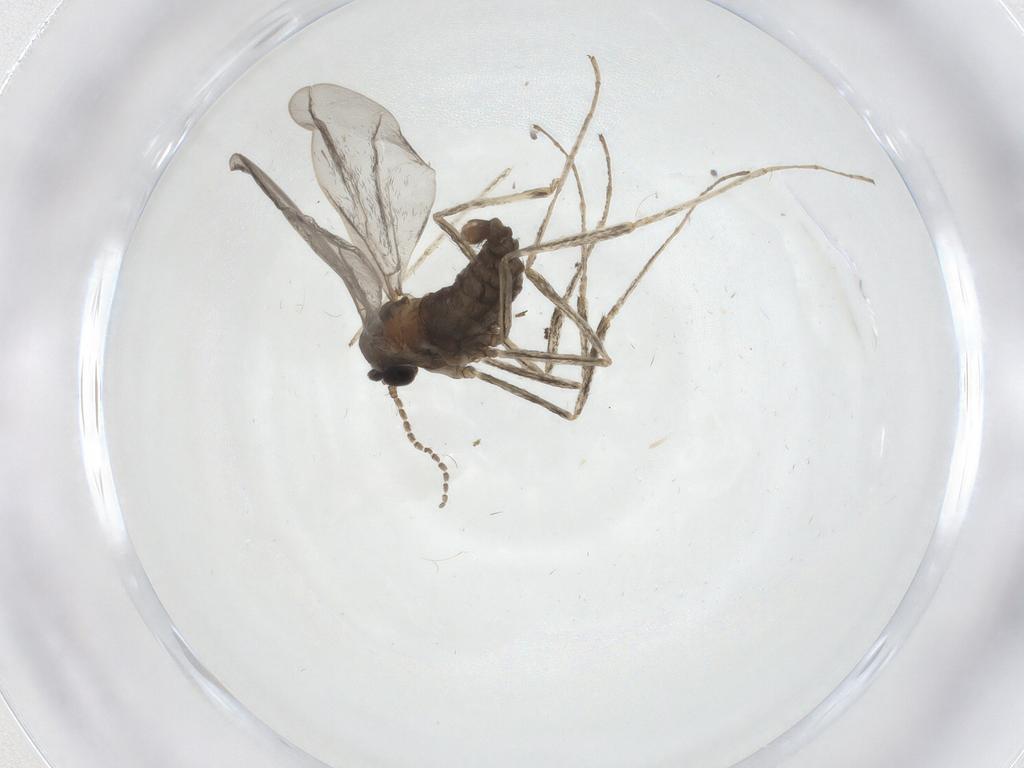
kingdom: Animalia
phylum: Arthropoda
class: Insecta
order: Diptera
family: Cecidomyiidae
